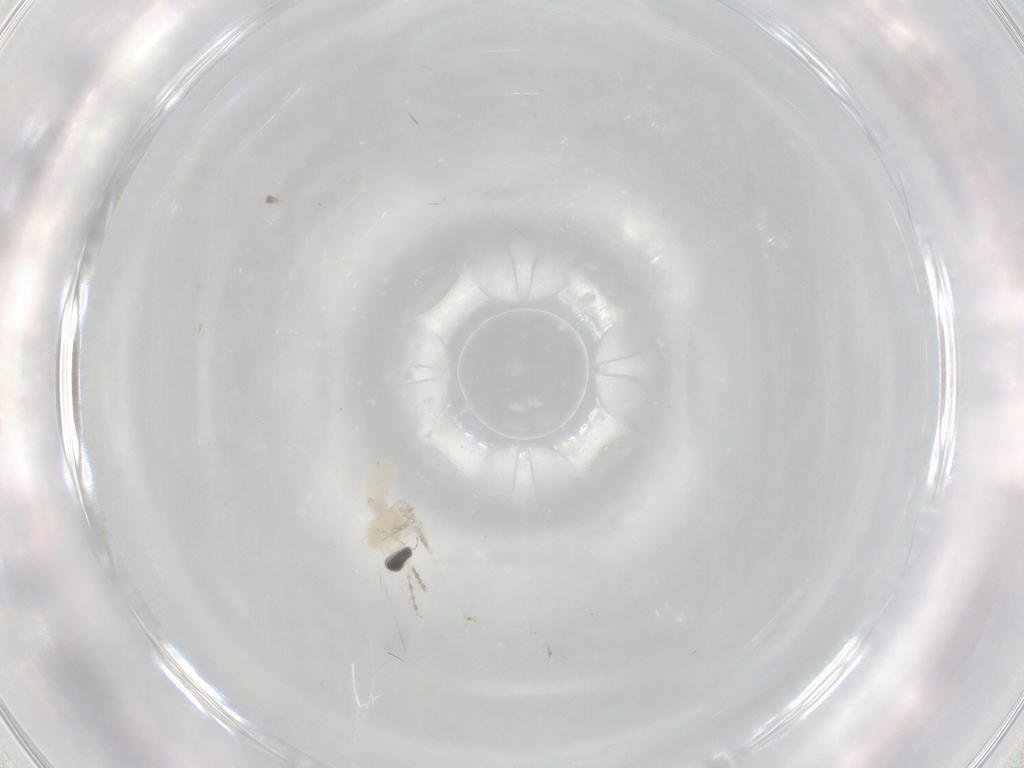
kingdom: Animalia
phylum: Arthropoda
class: Insecta
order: Diptera
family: Cecidomyiidae
